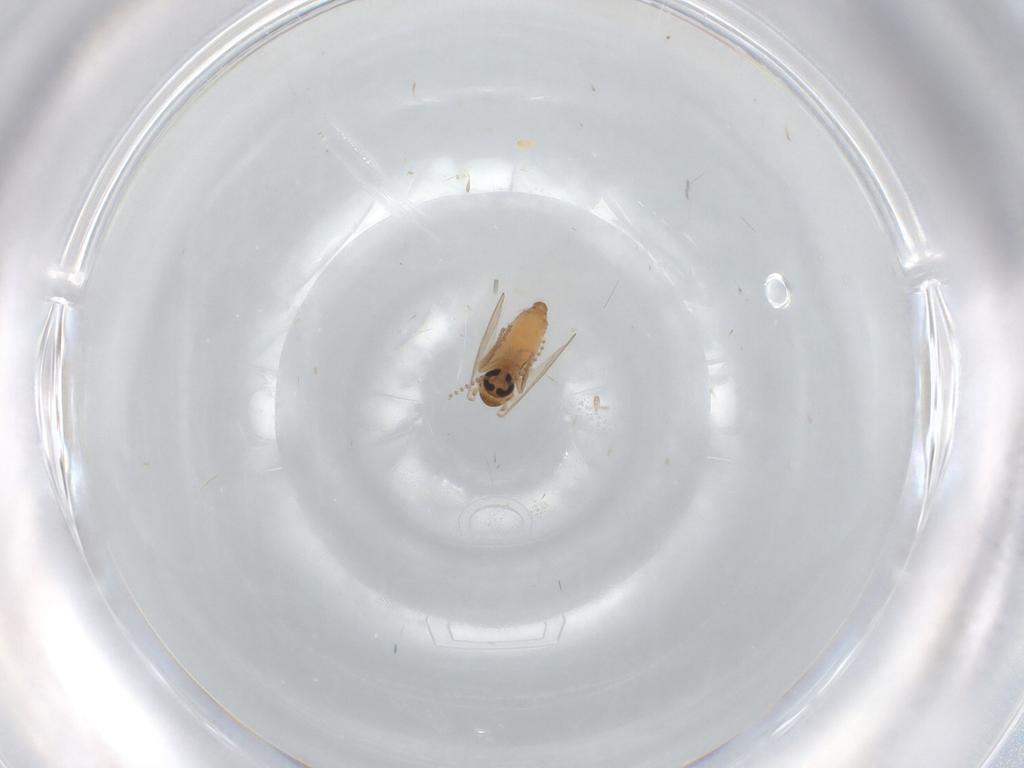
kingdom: Animalia
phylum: Arthropoda
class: Insecta
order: Diptera
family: Cecidomyiidae
